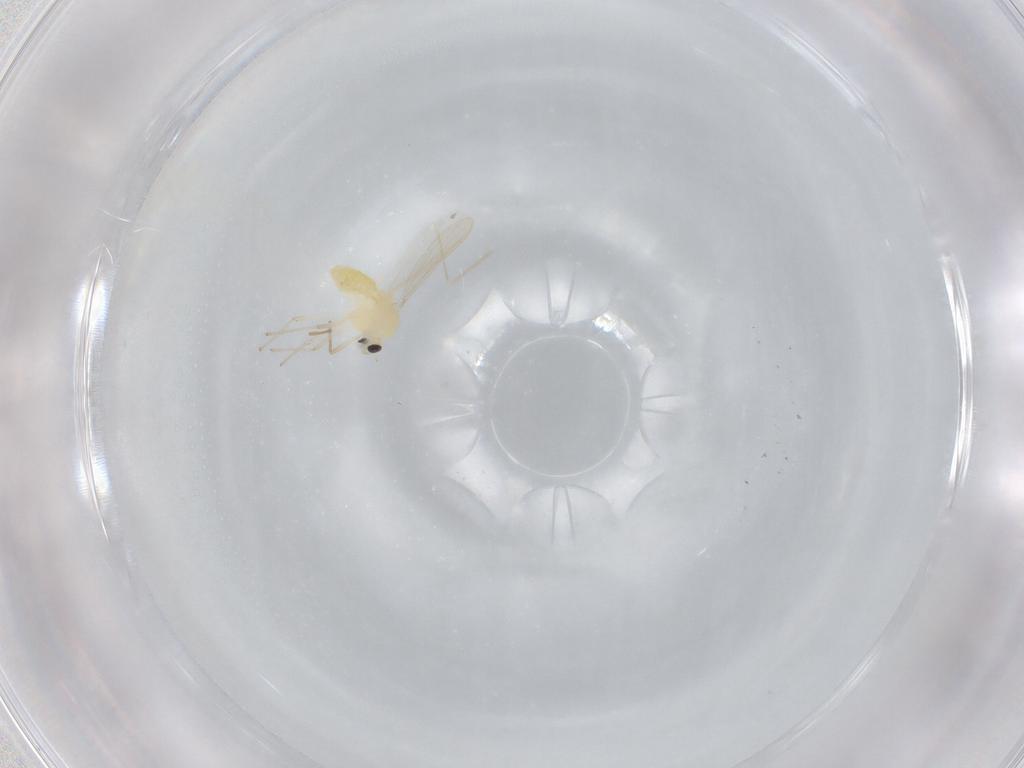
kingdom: Animalia
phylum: Arthropoda
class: Insecta
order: Diptera
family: Chironomidae
